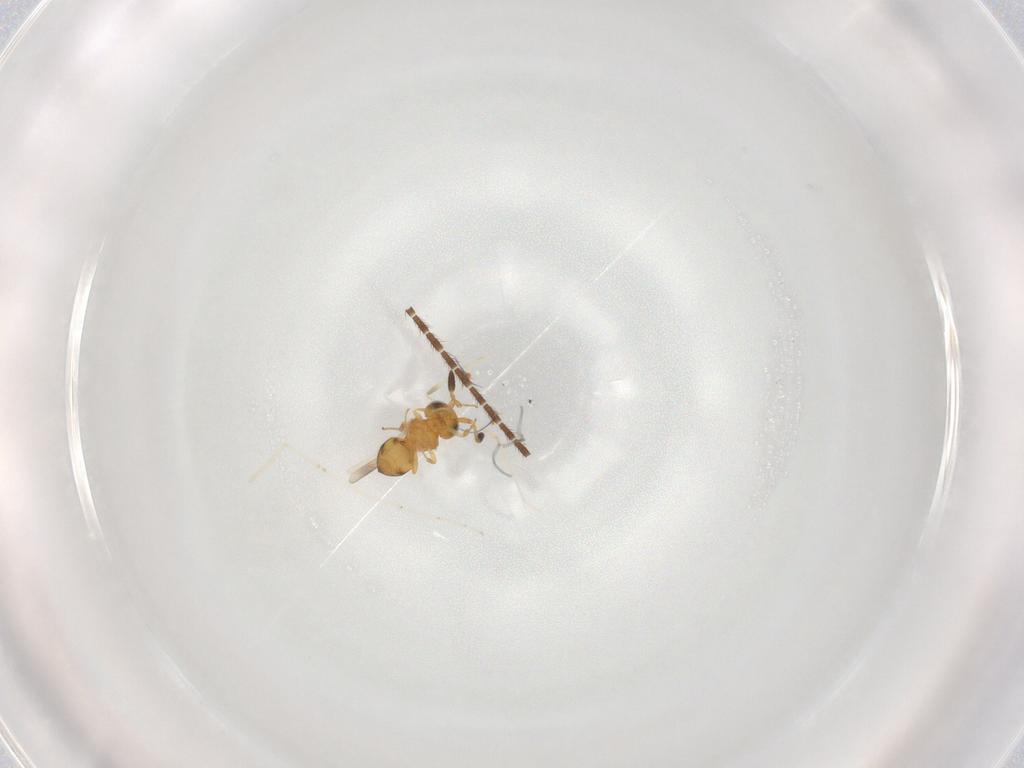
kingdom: Animalia
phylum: Arthropoda
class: Insecta
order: Hymenoptera
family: Scelionidae
